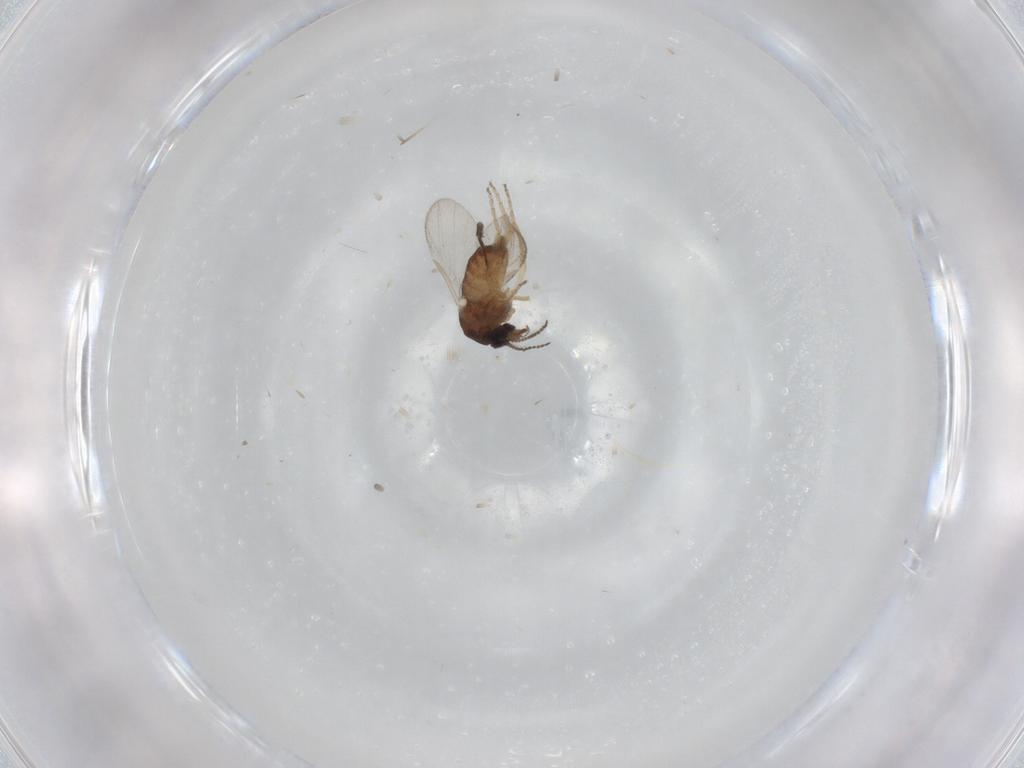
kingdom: Animalia
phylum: Arthropoda
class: Insecta
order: Diptera
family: Ceratopogonidae
